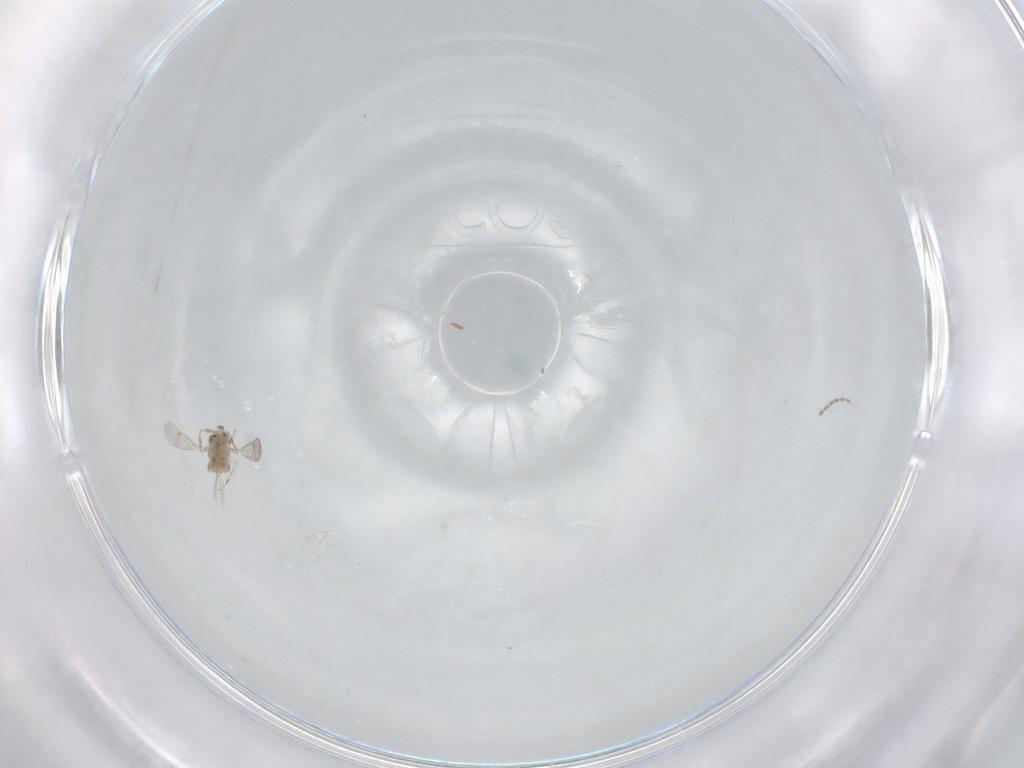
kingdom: Animalia
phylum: Arthropoda
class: Insecta
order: Hymenoptera
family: Aphelinidae
